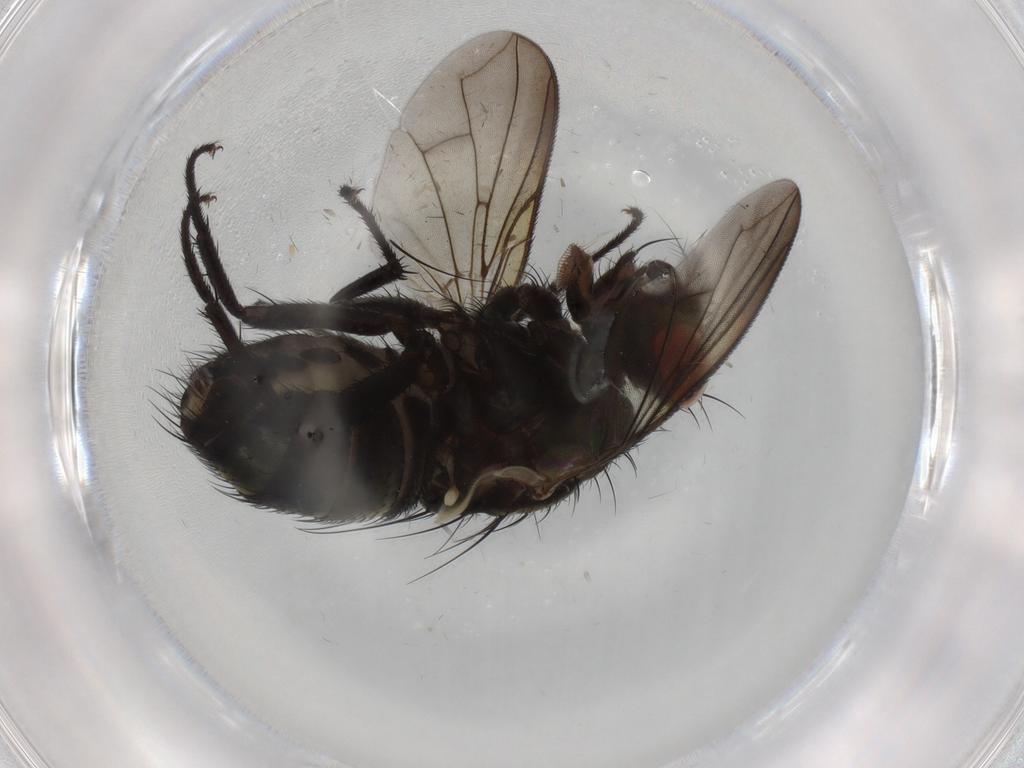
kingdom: Animalia
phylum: Arthropoda
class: Insecta
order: Diptera
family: Sarcophagidae
